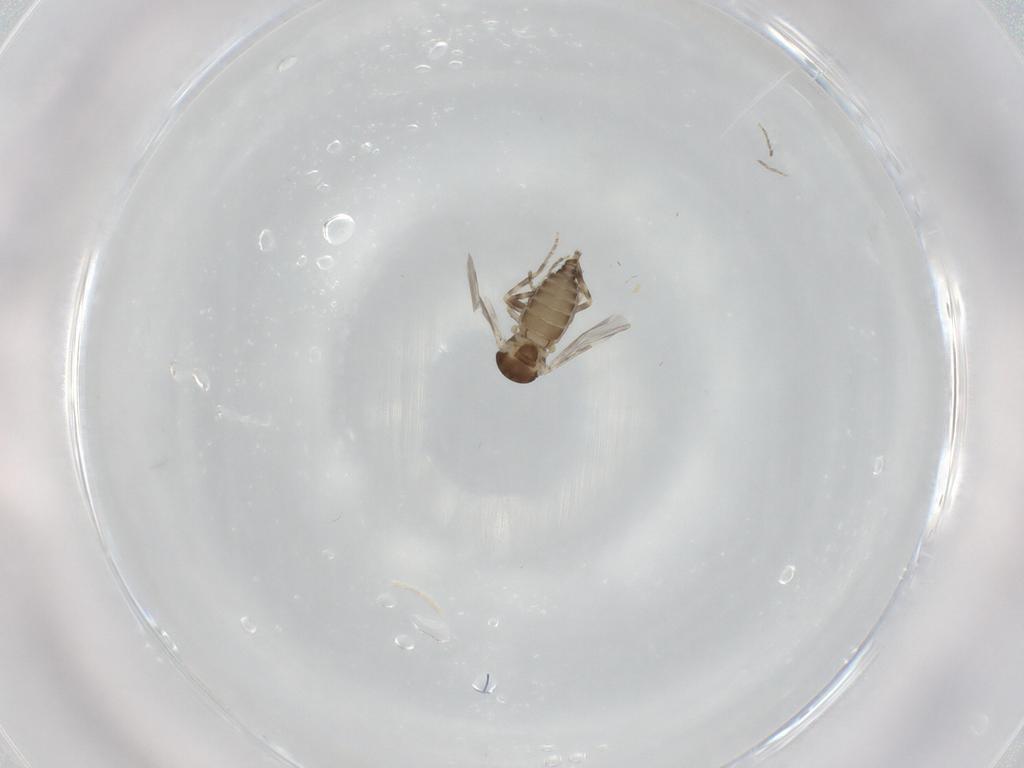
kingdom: Animalia
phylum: Arthropoda
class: Insecta
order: Diptera
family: Ceratopogonidae
